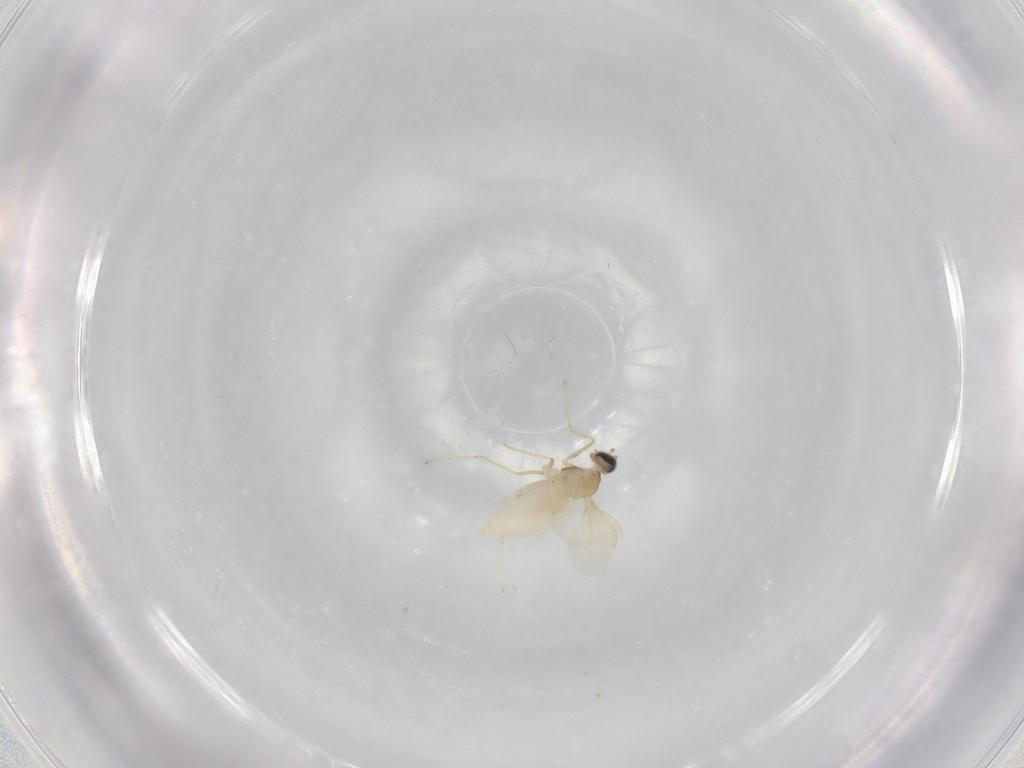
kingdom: Animalia
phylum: Arthropoda
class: Insecta
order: Diptera
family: Cecidomyiidae
